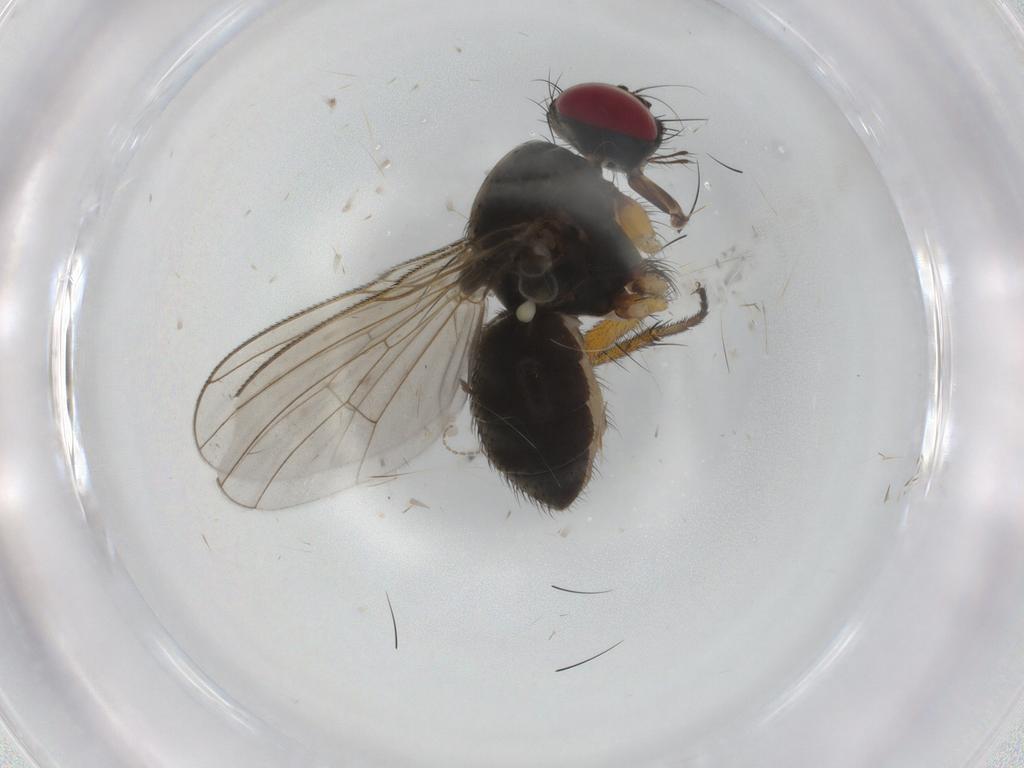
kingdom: Animalia
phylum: Arthropoda
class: Insecta
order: Diptera
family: Muscidae
